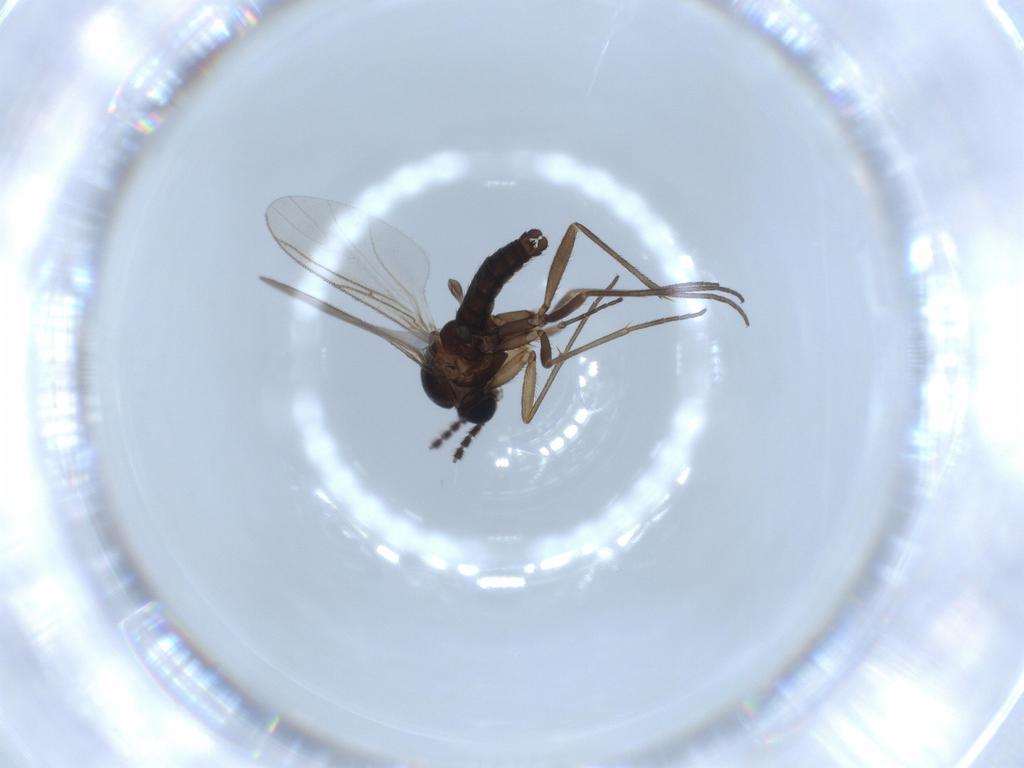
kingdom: Animalia
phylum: Arthropoda
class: Insecta
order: Diptera
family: Sciaridae
